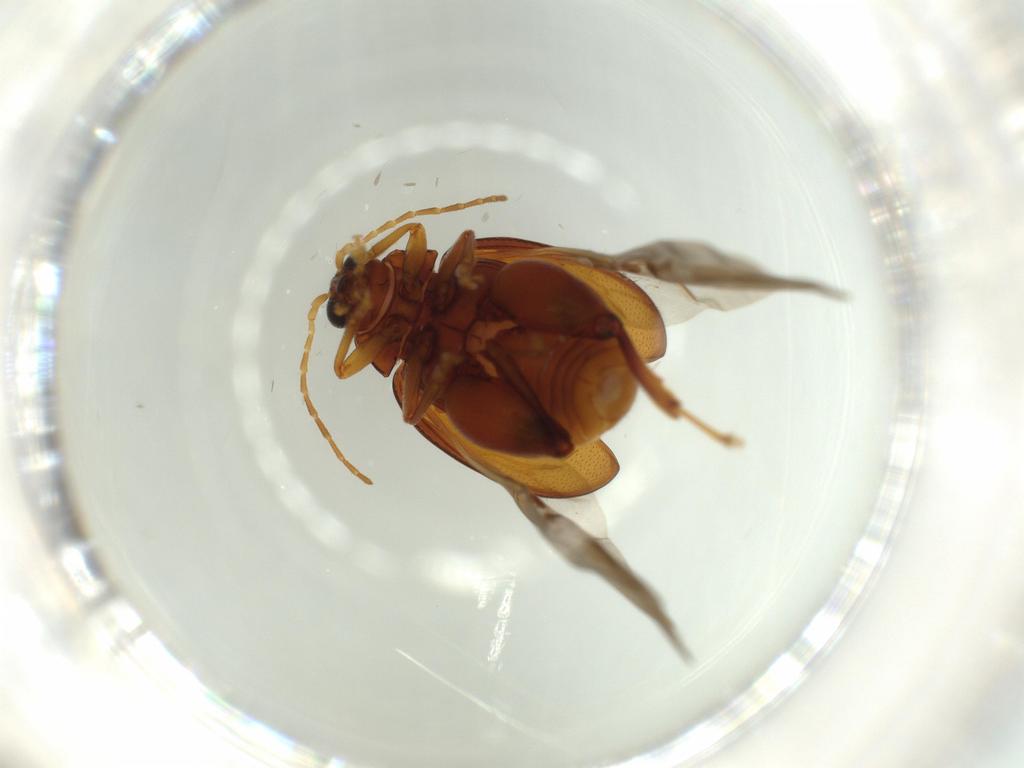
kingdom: Animalia
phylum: Arthropoda
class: Insecta
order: Coleoptera
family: Chrysomelidae
